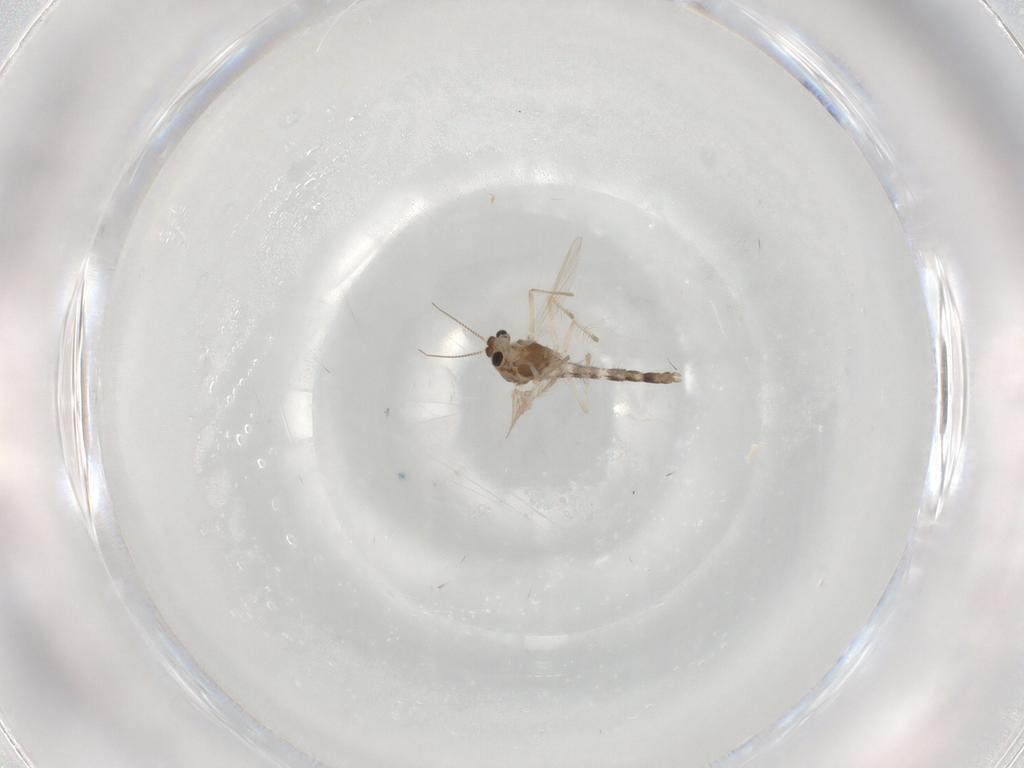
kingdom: Animalia
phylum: Arthropoda
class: Insecta
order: Diptera
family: Chironomidae
